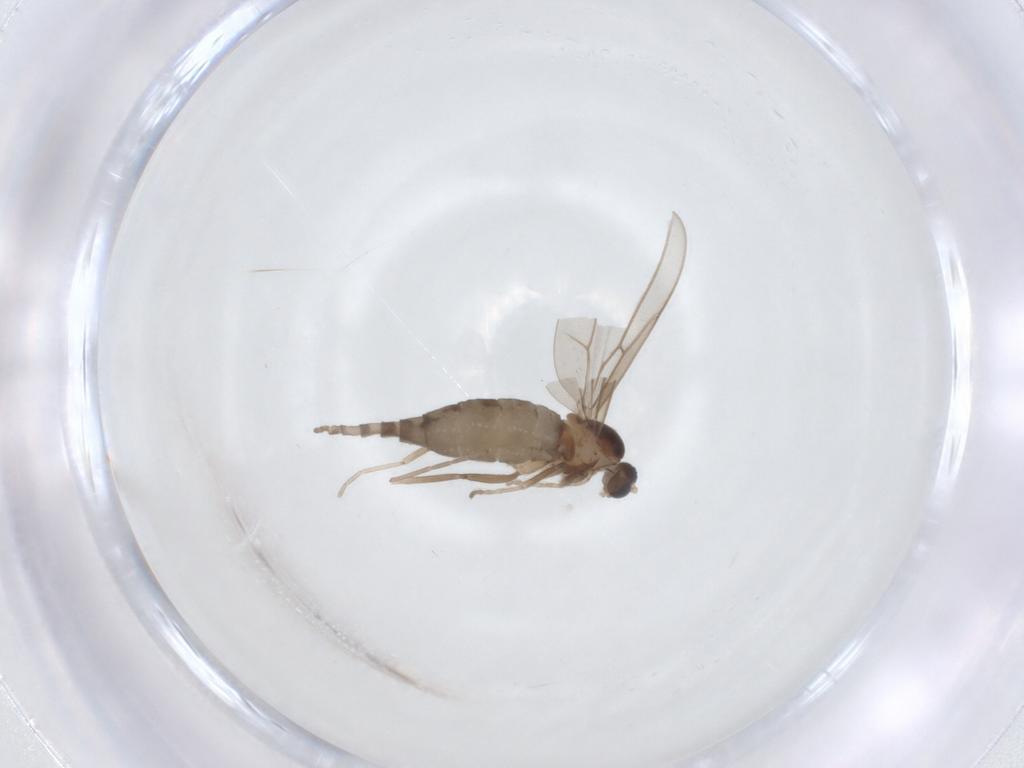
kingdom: Animalia
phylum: Arthropoda
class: Insecta
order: Diptera
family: Cecidomyiidae
